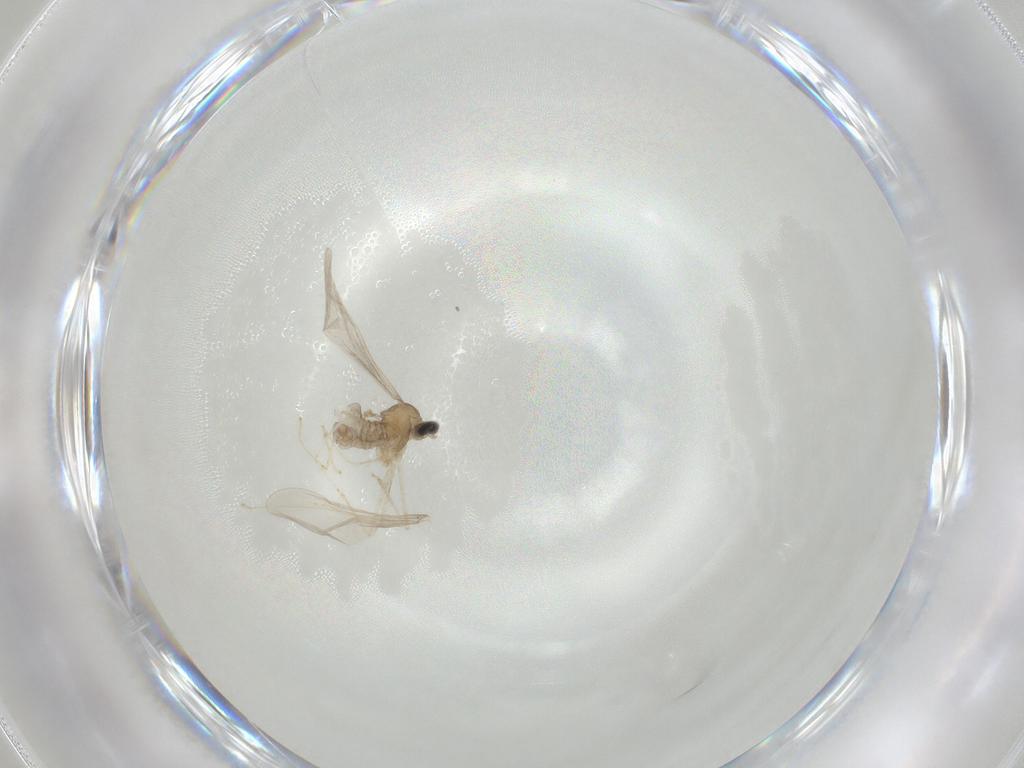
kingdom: Animalia
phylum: Arthropoda
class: Insecta
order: Diptera
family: Cecidomyiidae
